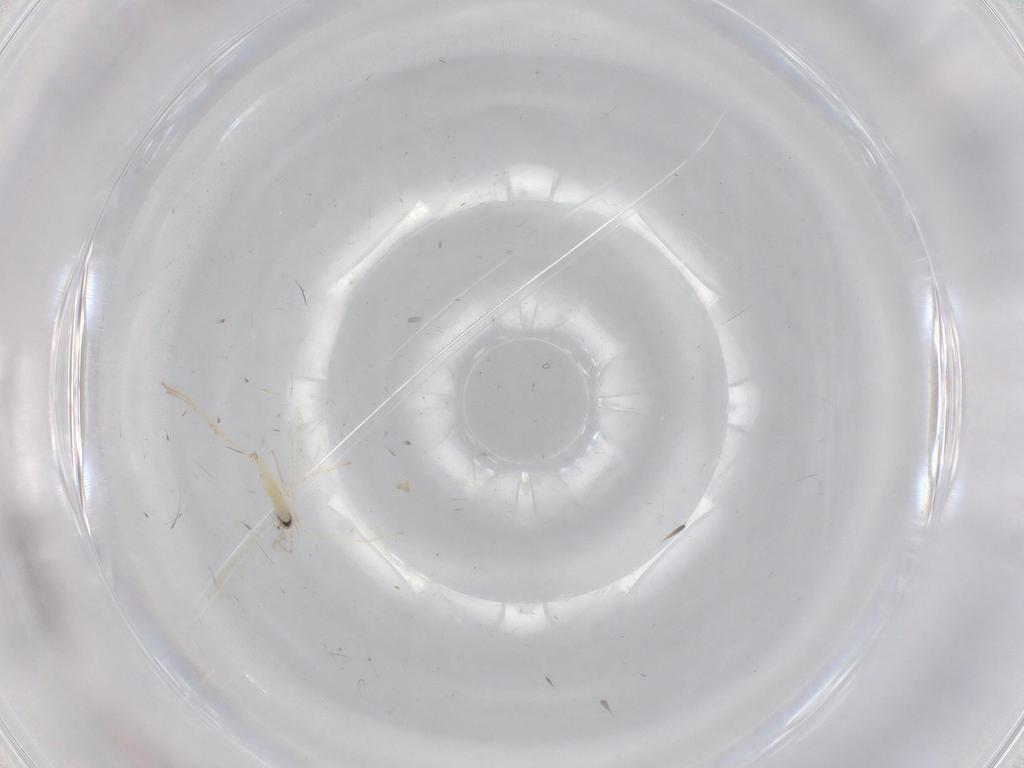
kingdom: Animalia
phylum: Arthropoda
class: Insecta
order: Diptera
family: Cecidomyiidae
